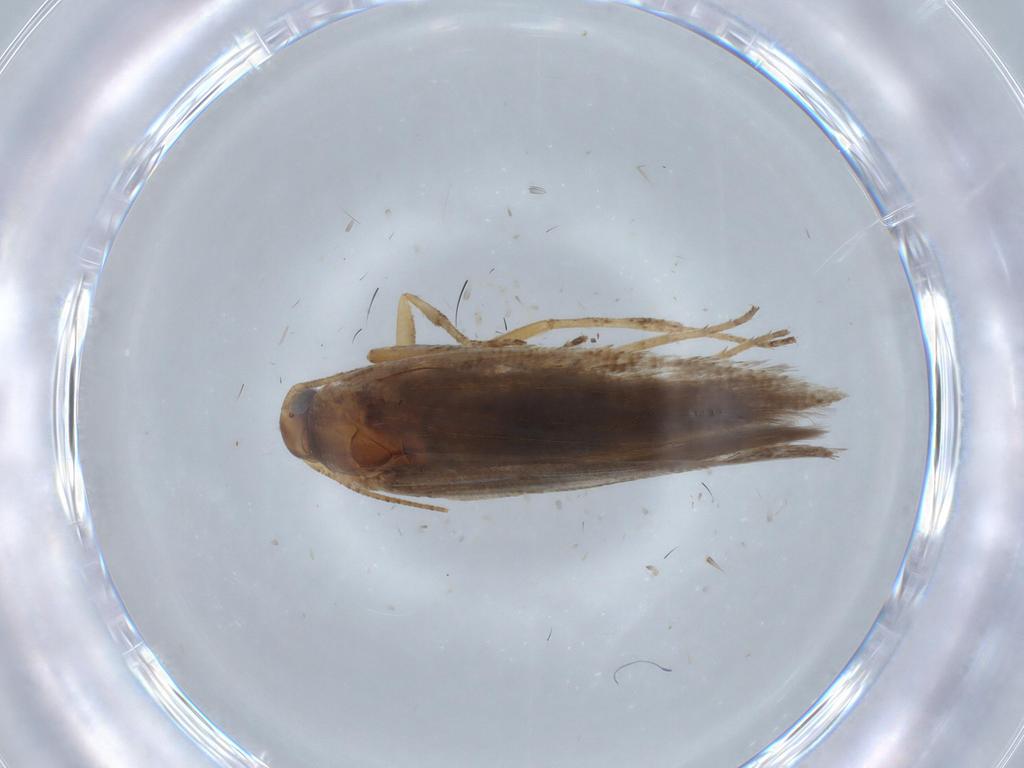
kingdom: Animalia
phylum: Arthropoda
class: Insecta
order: Lepidoptera
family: Gelechiidae
